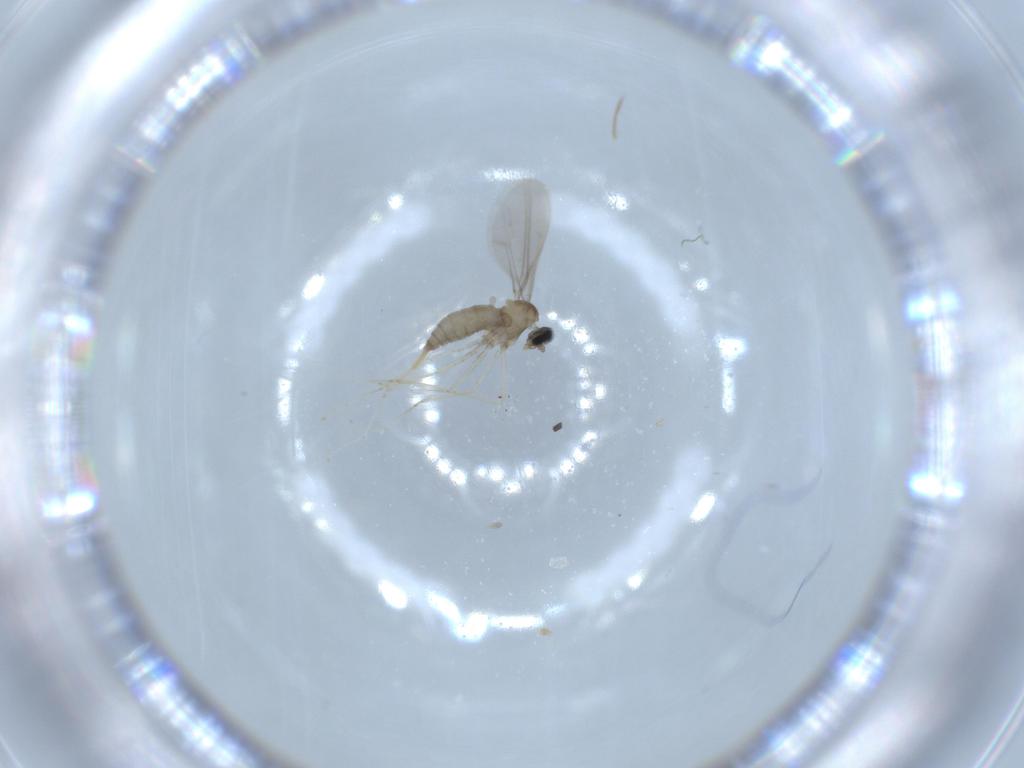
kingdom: Animalia
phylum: Arthropoda
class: Insecta
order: Diptera
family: Cecidomyiidae
